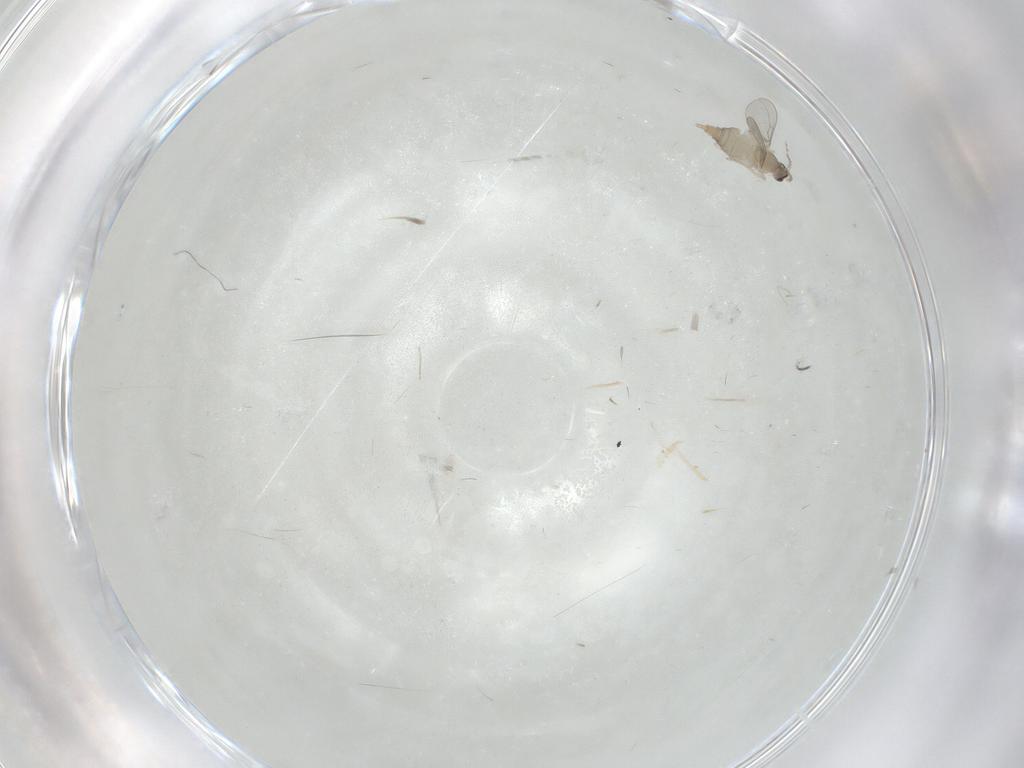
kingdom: Animalia
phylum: Arthropoda
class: Insecta
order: Diptera
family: Cecidomyiidae
